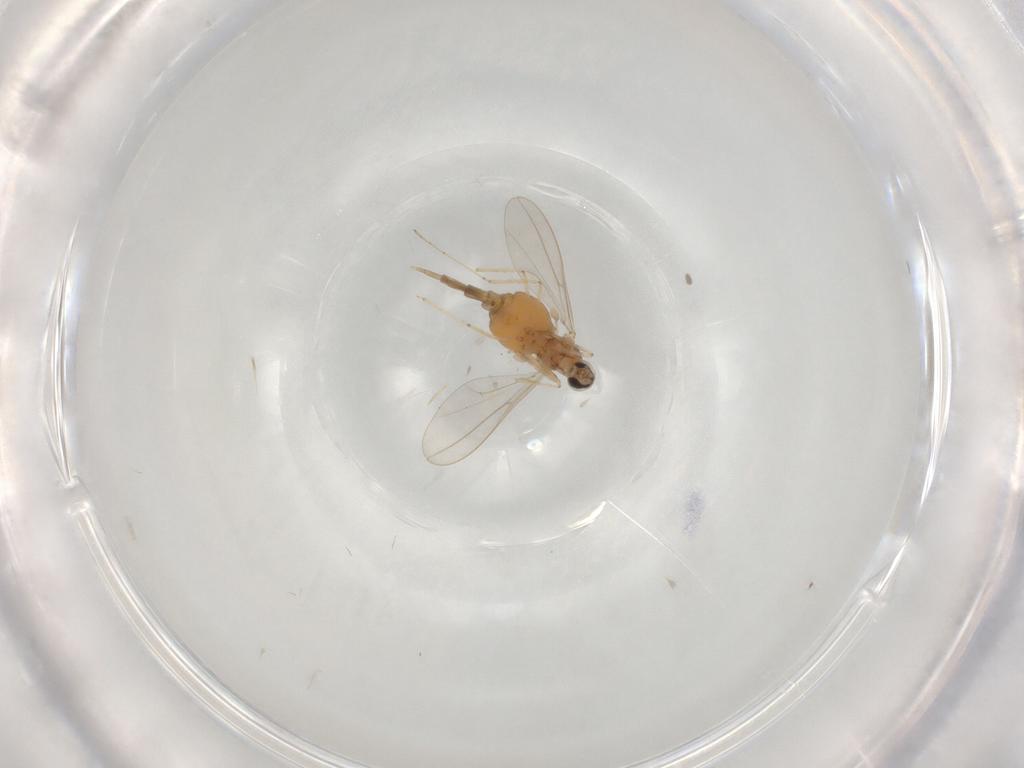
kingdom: Animalia
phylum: Arthropoda
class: Insecta
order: Diptera
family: Cecidomyiidae
